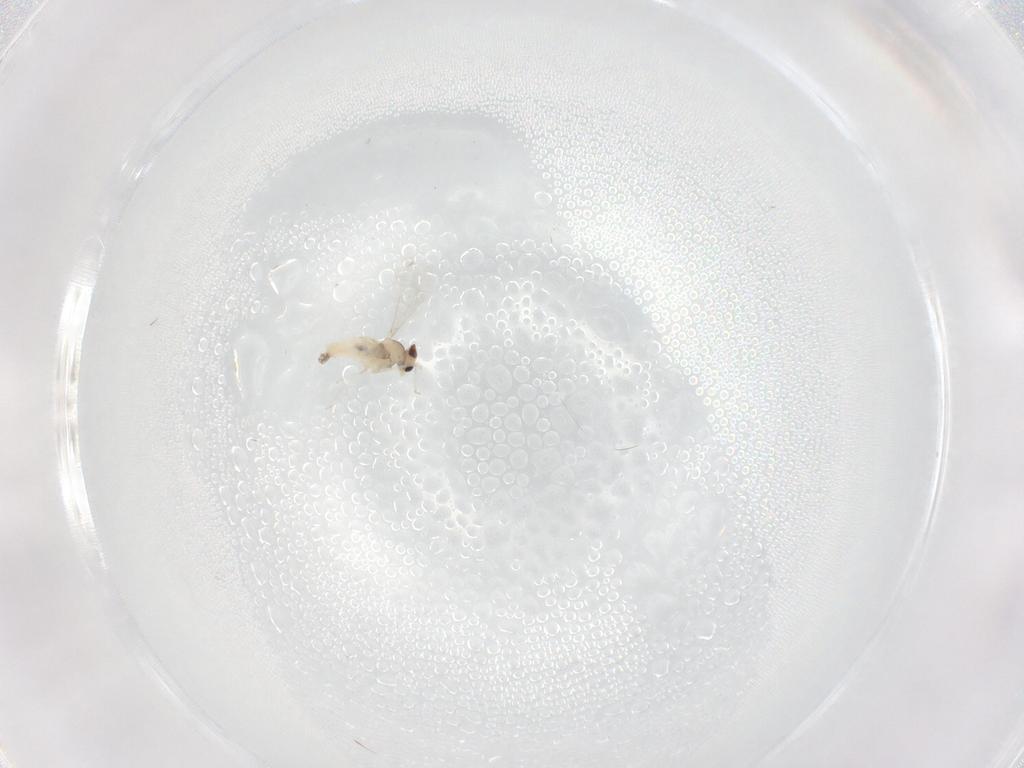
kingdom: Animalia
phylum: Arthropoda
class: Insecta
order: Diptera
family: Cecidomyiidae
